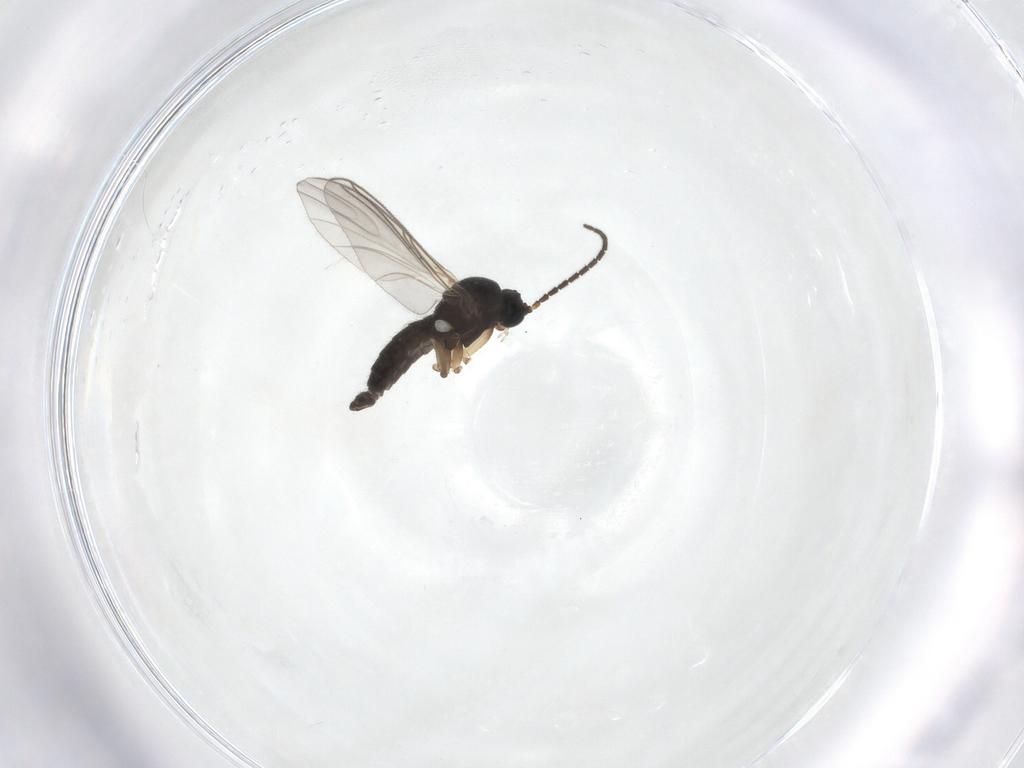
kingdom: Animalia
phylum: Arthropoda
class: Insecta
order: Diptera
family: Sciaridae
